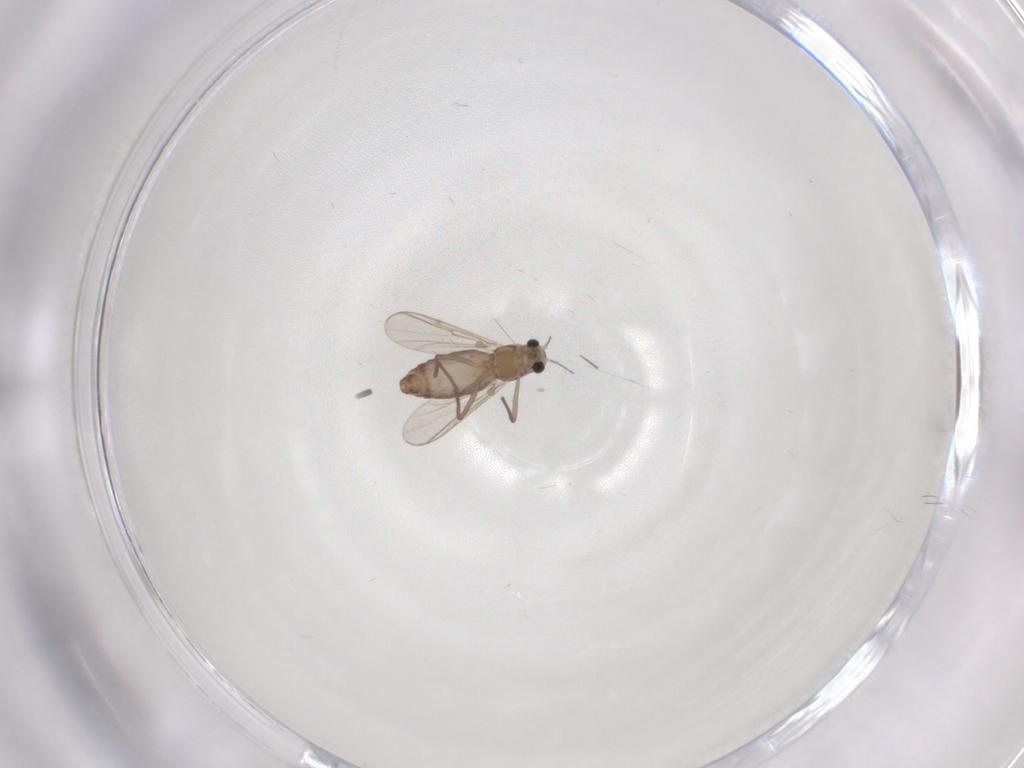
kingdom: Animalia
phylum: Arthropoda
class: Insecta
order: Diptera
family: Chironomidae
